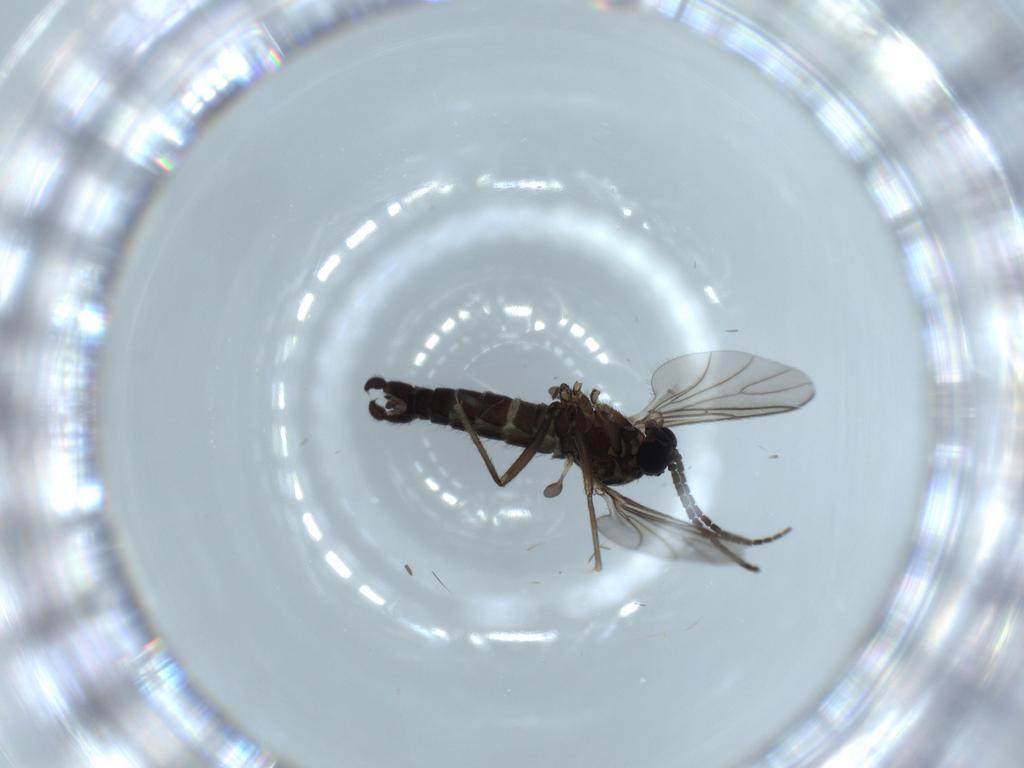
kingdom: Animalia
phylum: Arthropoda
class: Insecta
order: Diptera
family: Sciaridae
